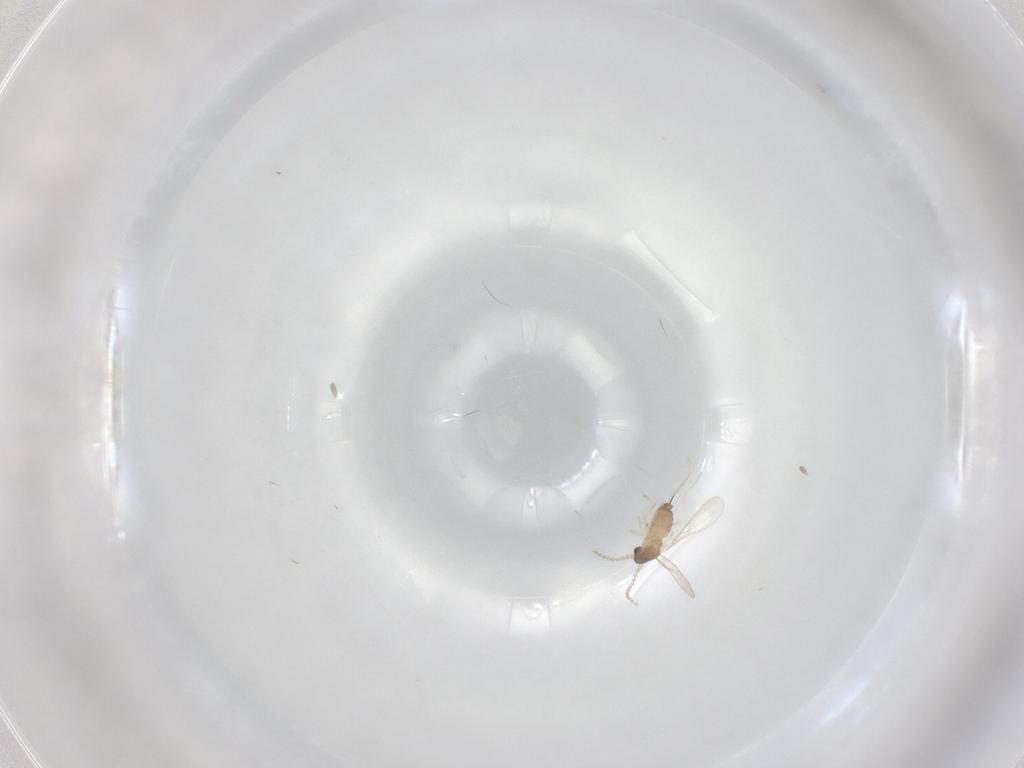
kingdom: Animalia
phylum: Arthropoda
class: Insecta
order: Diptera
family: Cecidomyiidae
